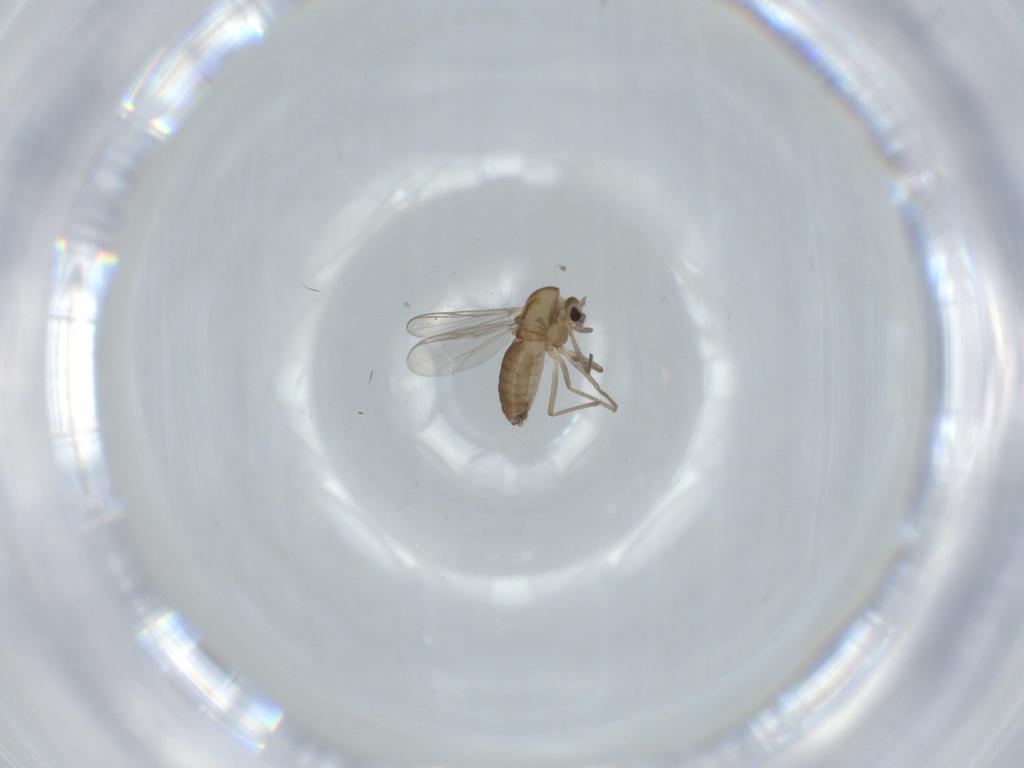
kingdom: Animalia
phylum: Arthropoda
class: Insecta
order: Diptera
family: Chironomidae
